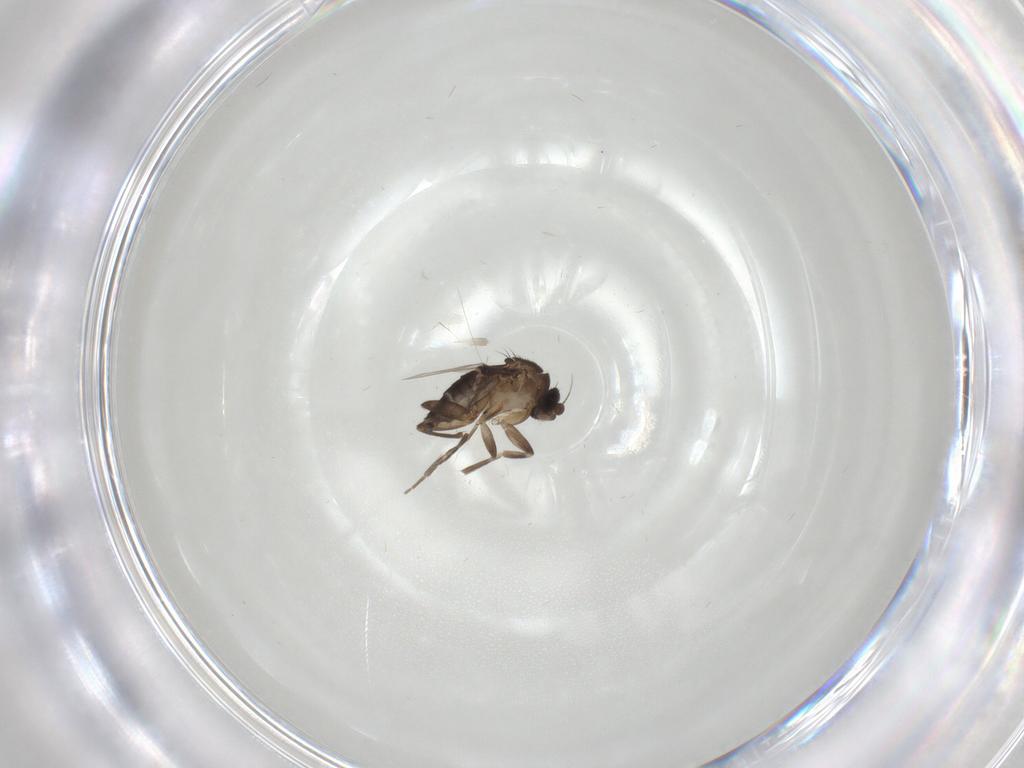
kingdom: Animalia
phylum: Arthropoda
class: Insecta
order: Diptera
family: Phoridae
